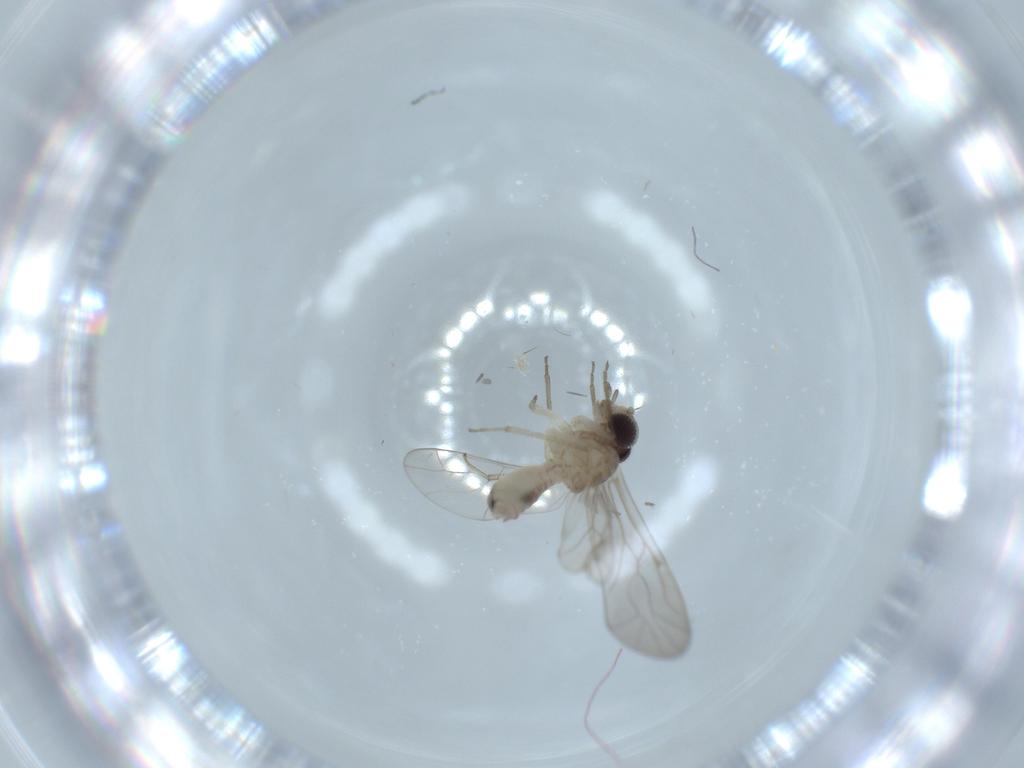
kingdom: Animalia
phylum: Arthropoda
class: Insecta
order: Psocodea
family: Peripsocidae
